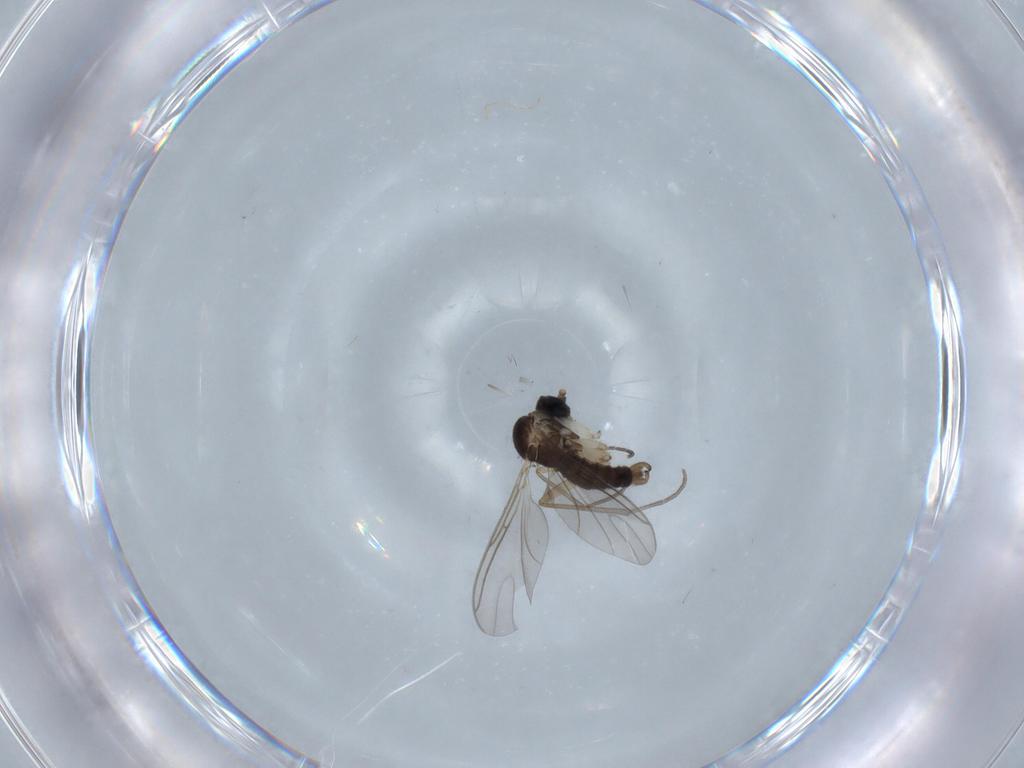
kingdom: Animalia
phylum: Arthropoda
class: Insecta
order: Diptera
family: Sciaridae
